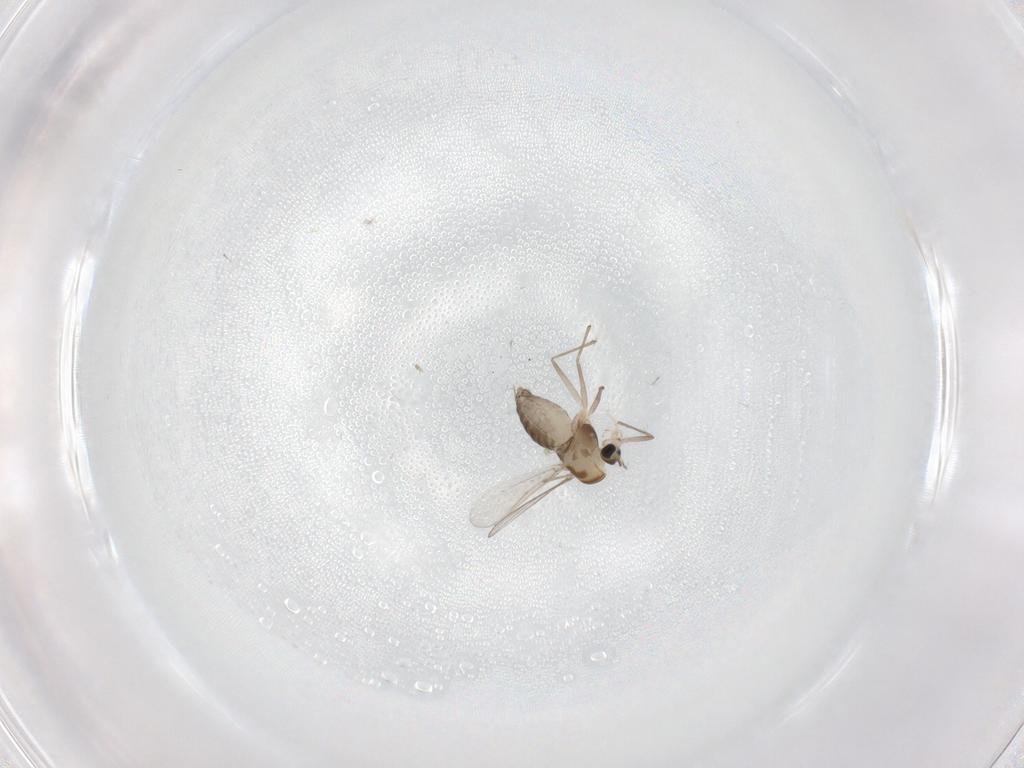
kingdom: Animalia
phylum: Arthropoda
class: Insecta
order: Diptera
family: Chironomidae
